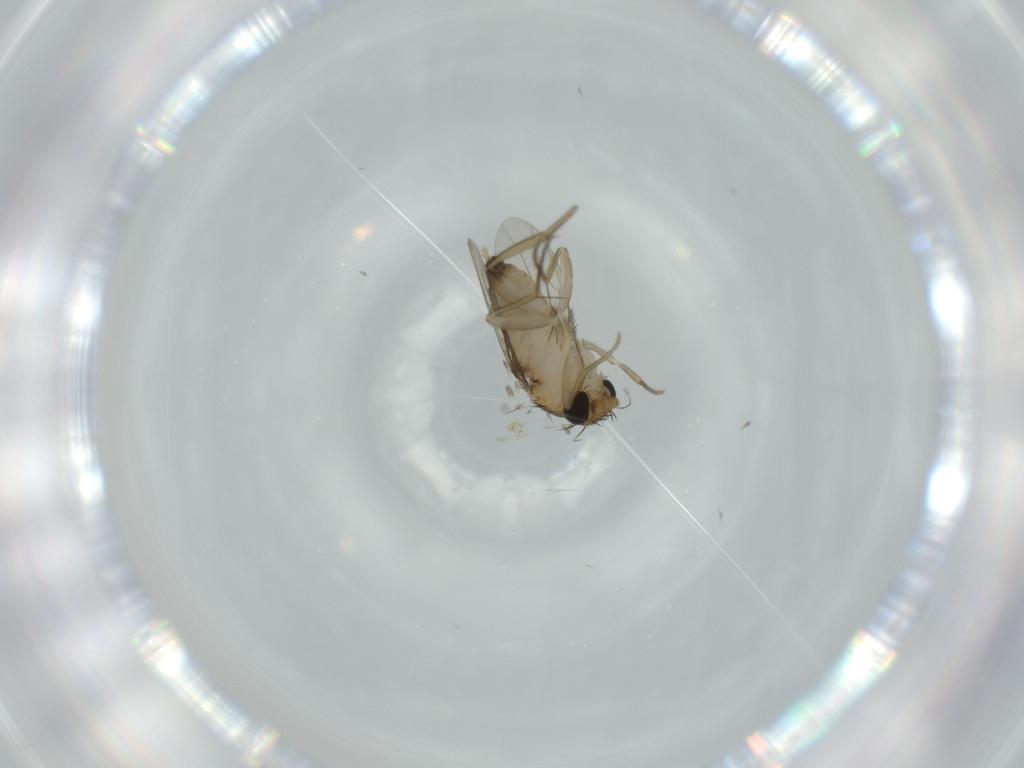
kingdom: Animalia
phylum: Arthropoda
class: Insecta
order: Diptera
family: Phoridae
